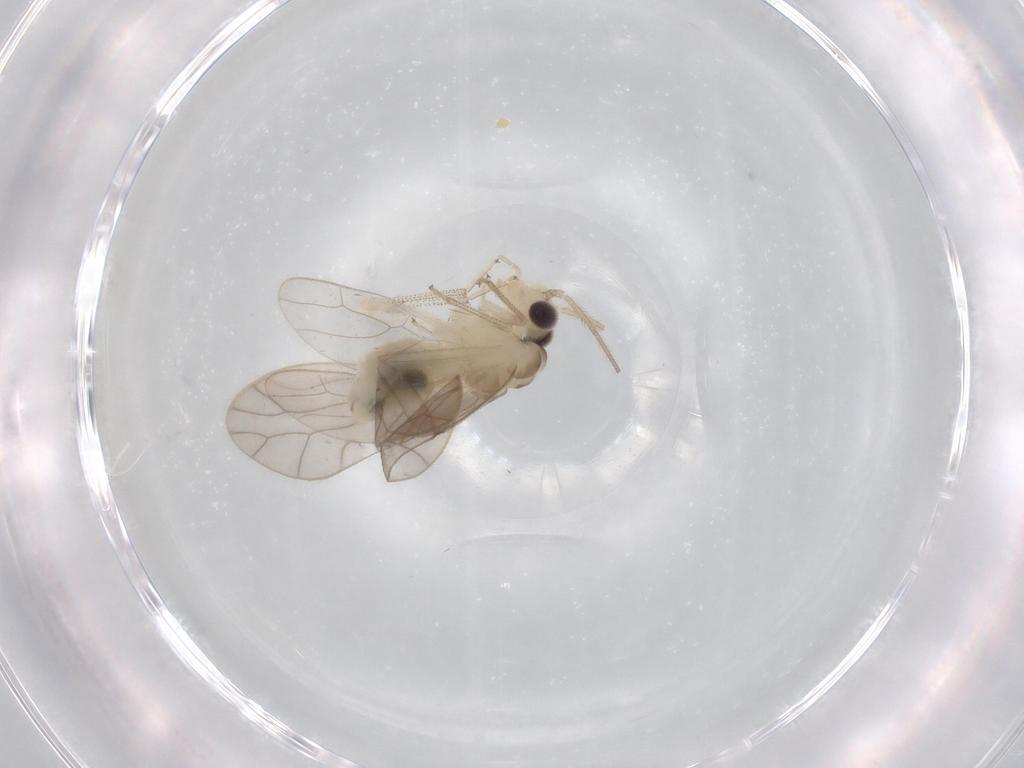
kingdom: Animalia
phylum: Arthropoda
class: Insecta
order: Psocodea
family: Caeciliusidae
